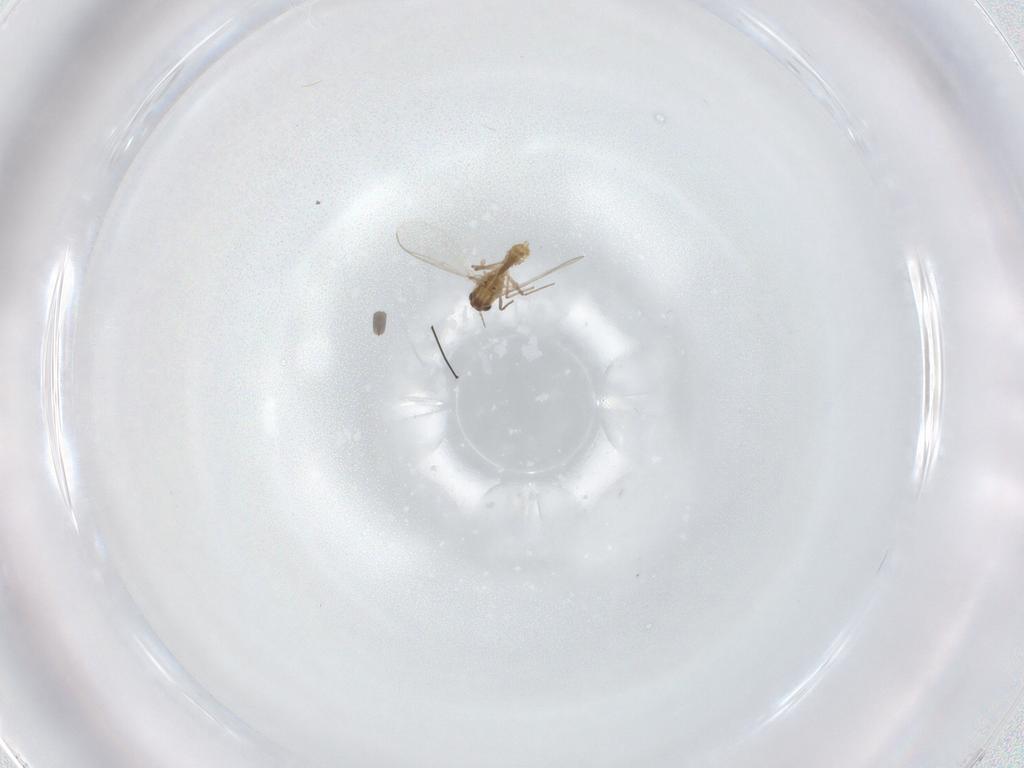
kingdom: Animalia
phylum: Arthropoda
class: Insecta
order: Diptera
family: Chironomidae
